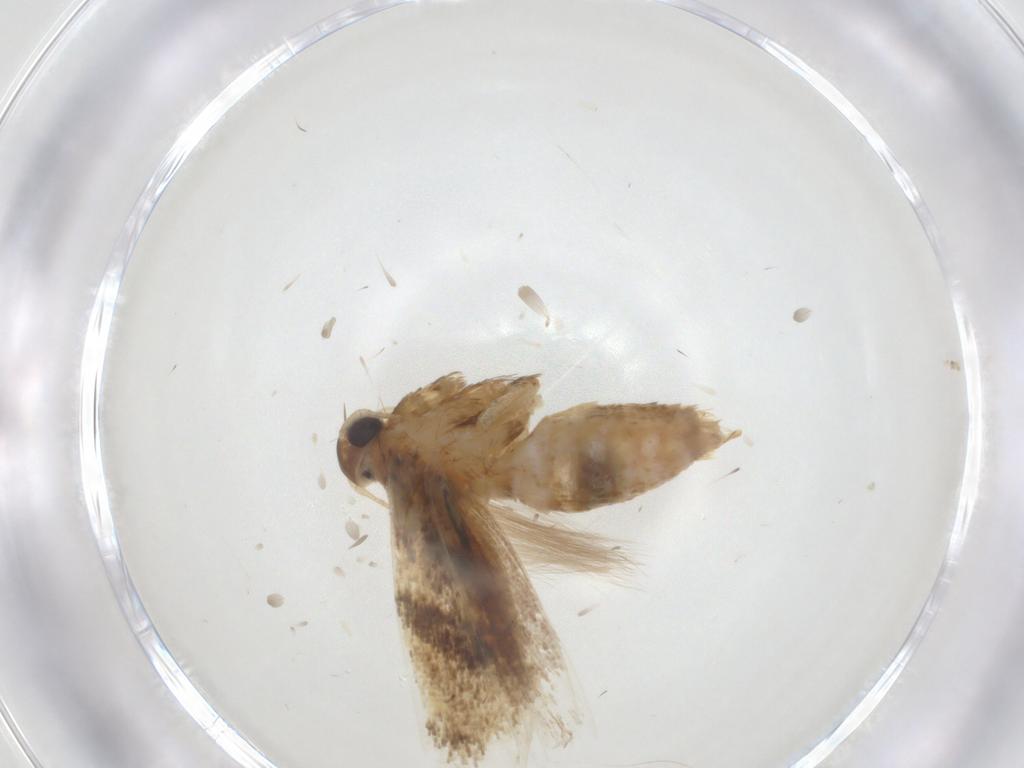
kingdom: Animalia
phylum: Arthropoda
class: Insecta
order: Lepidoptera
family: Gelechiidae
